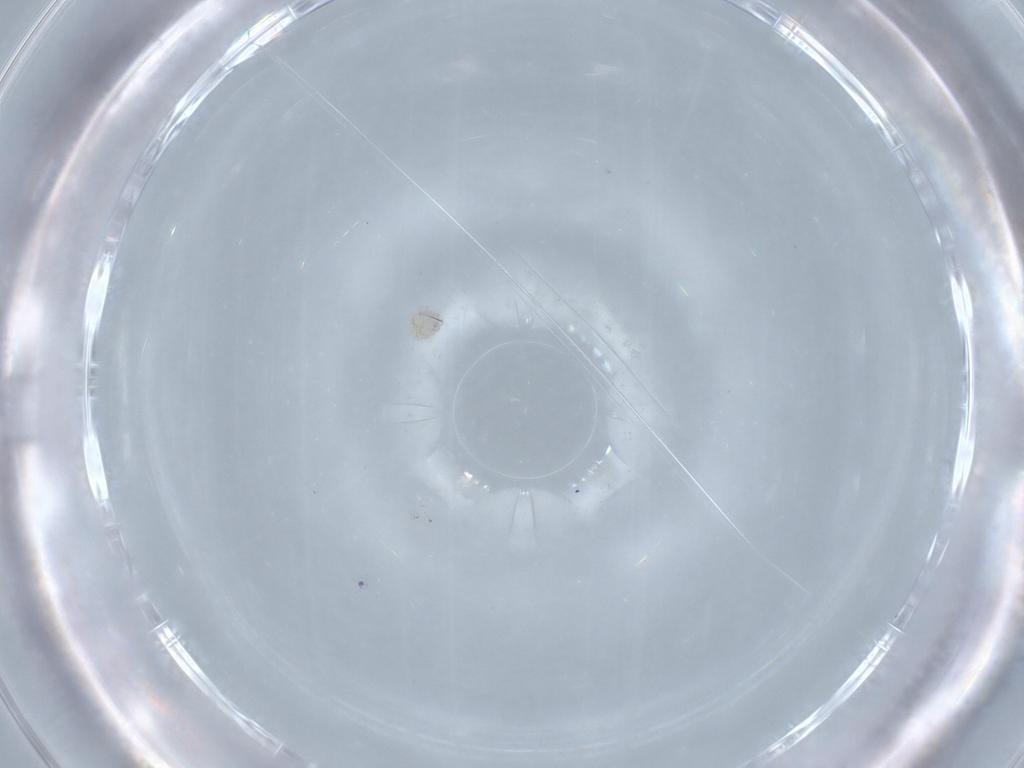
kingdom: Animalia
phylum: Arthropoda
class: Arachnida
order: Trombidiformes
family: Lebertiidae
